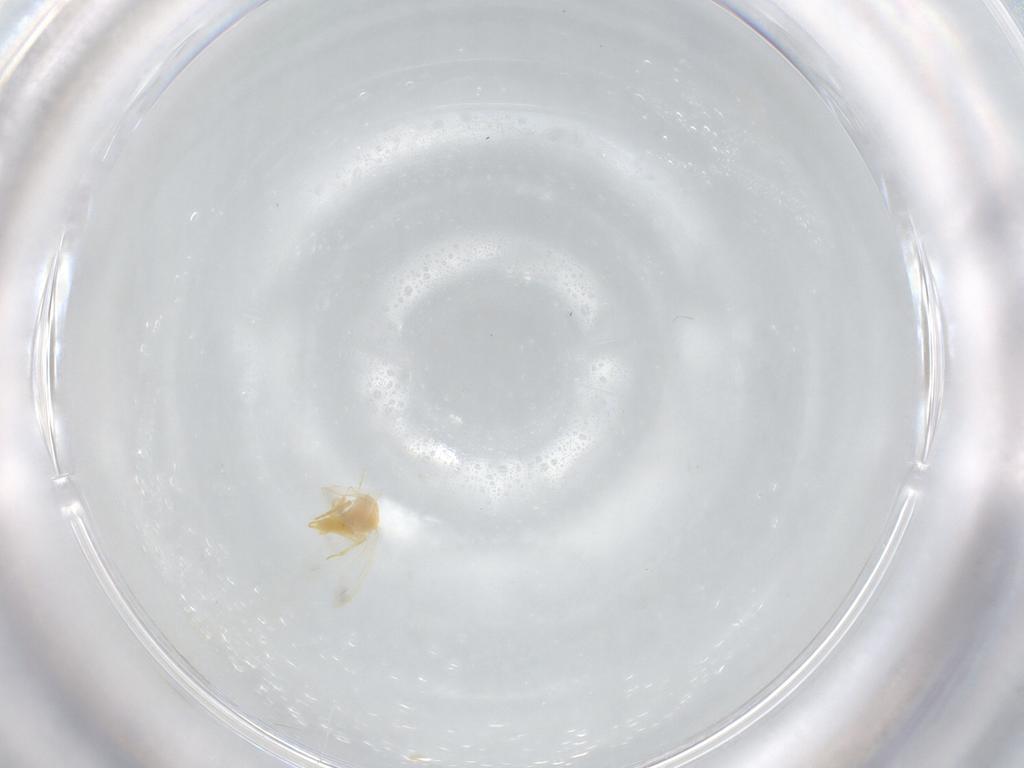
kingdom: Animalia
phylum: Arthropoda
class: Insecta
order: Hemiptera
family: Aleyrodidae
